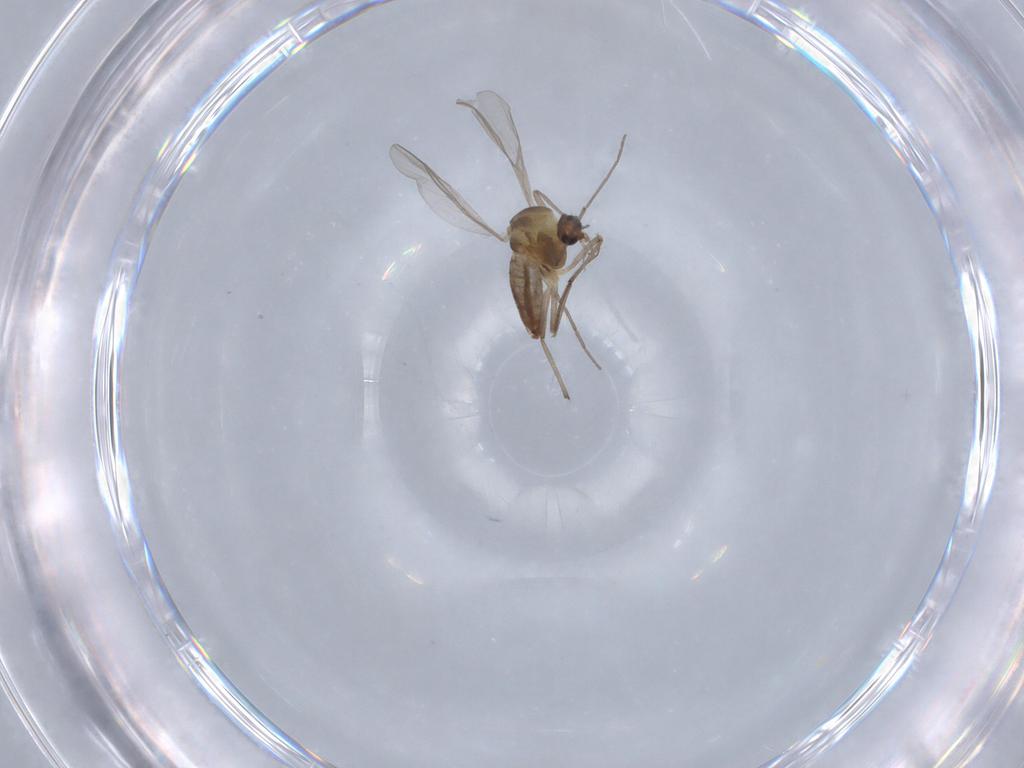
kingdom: Animalia
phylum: Arthropoda
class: Insecta
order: Diptera
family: Chironomidae
